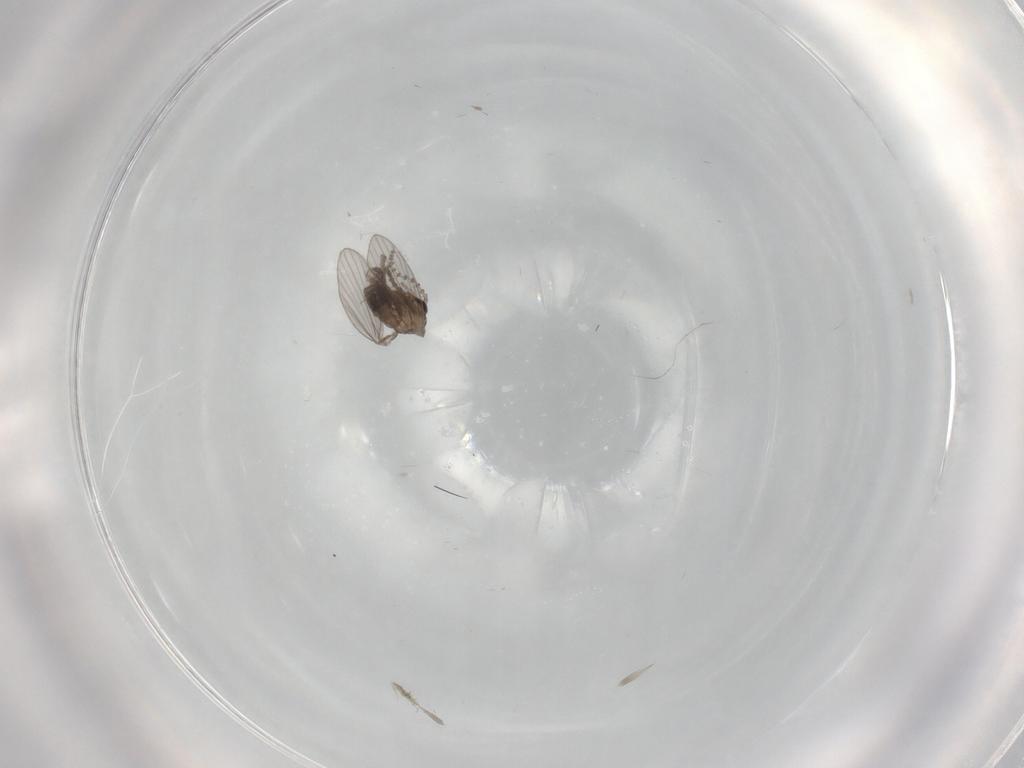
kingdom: Animalia
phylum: Arthropoda
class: Insecta
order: Diptera
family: Psychodidae
